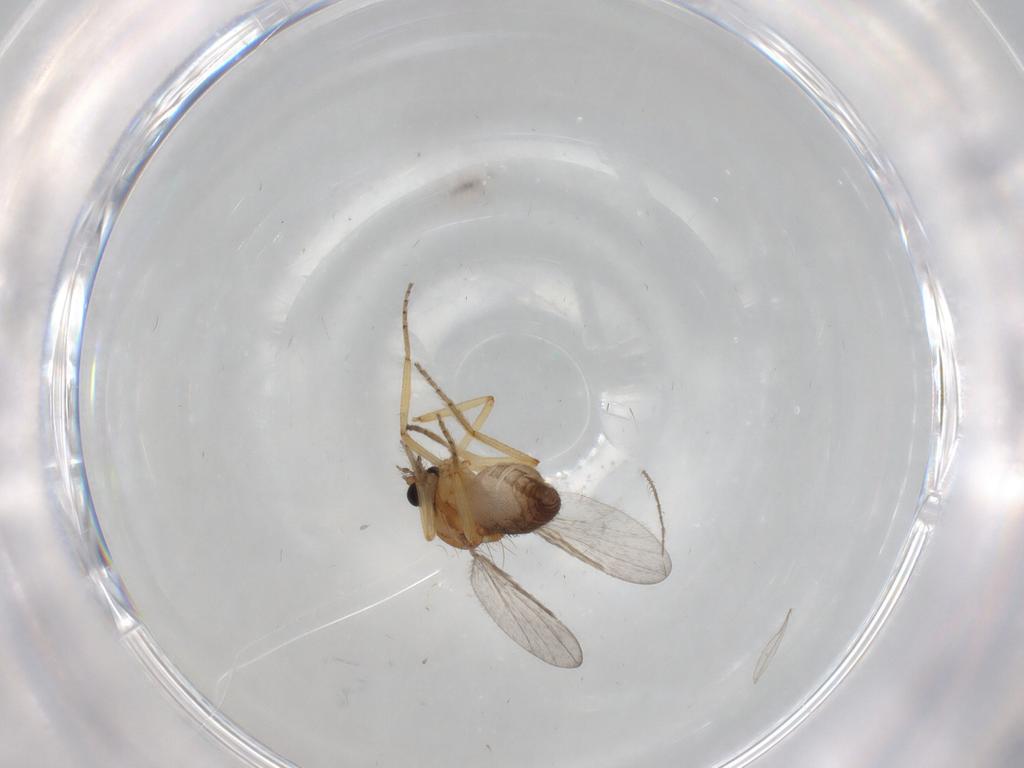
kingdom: Animalia
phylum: Arthropoda
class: Insecta
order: Diptera
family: Ceratopogonidae
